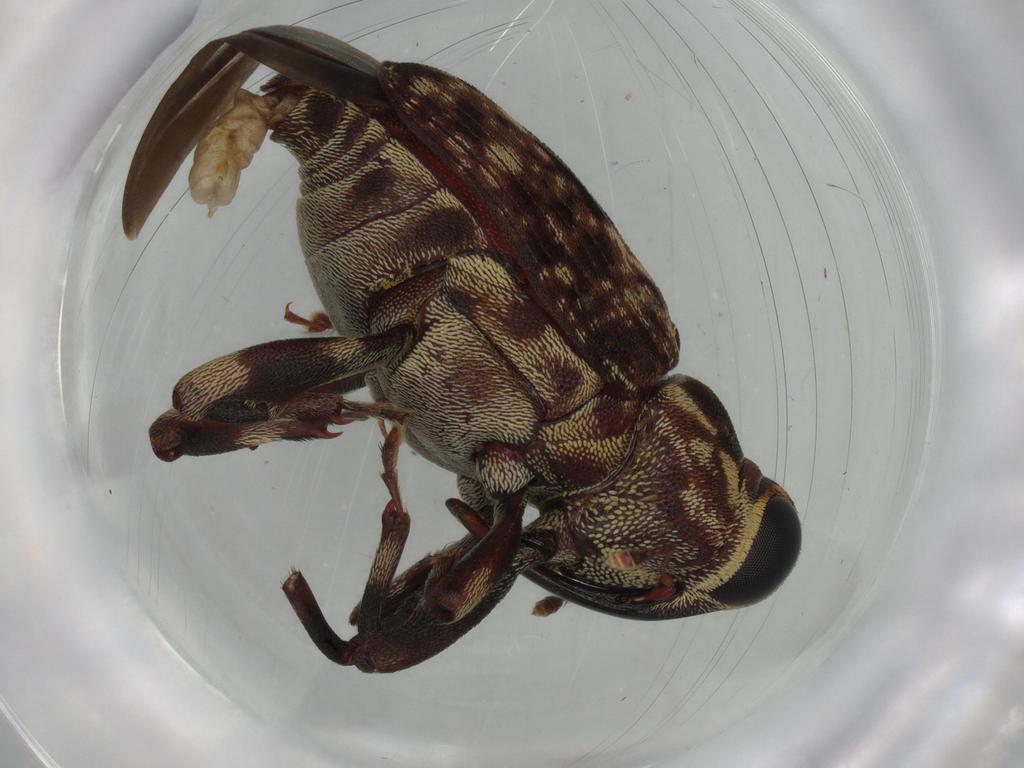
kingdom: Animalia
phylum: Arthropoda
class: Insecta
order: Coleoptera
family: Curculionidae
